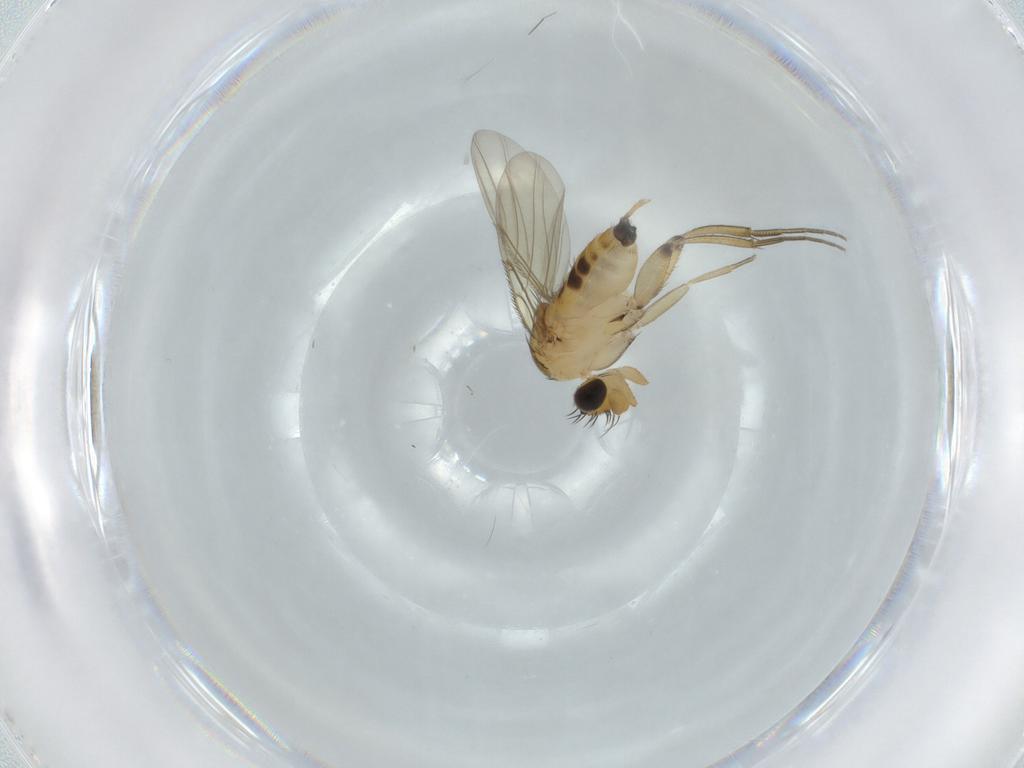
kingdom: Animalia
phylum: Arthropoda
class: Insecta
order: Diptera
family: Phoridae
